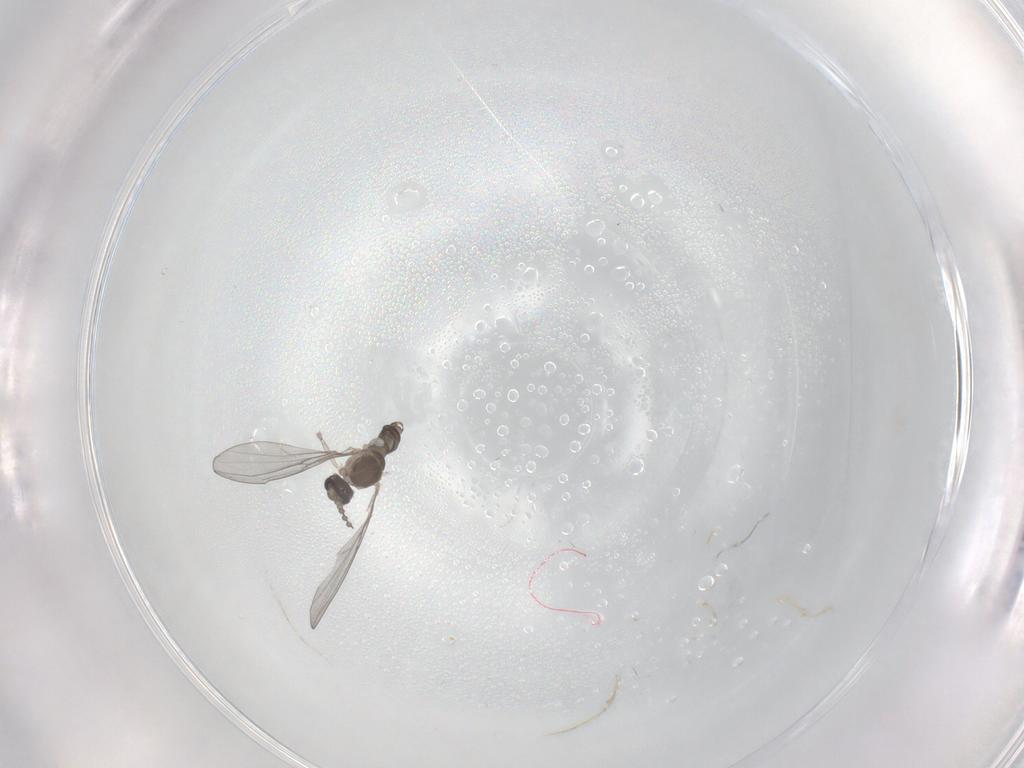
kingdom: Animalia
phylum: Arthropoda
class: Insecta
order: Diptera
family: Cecidomyiidae
